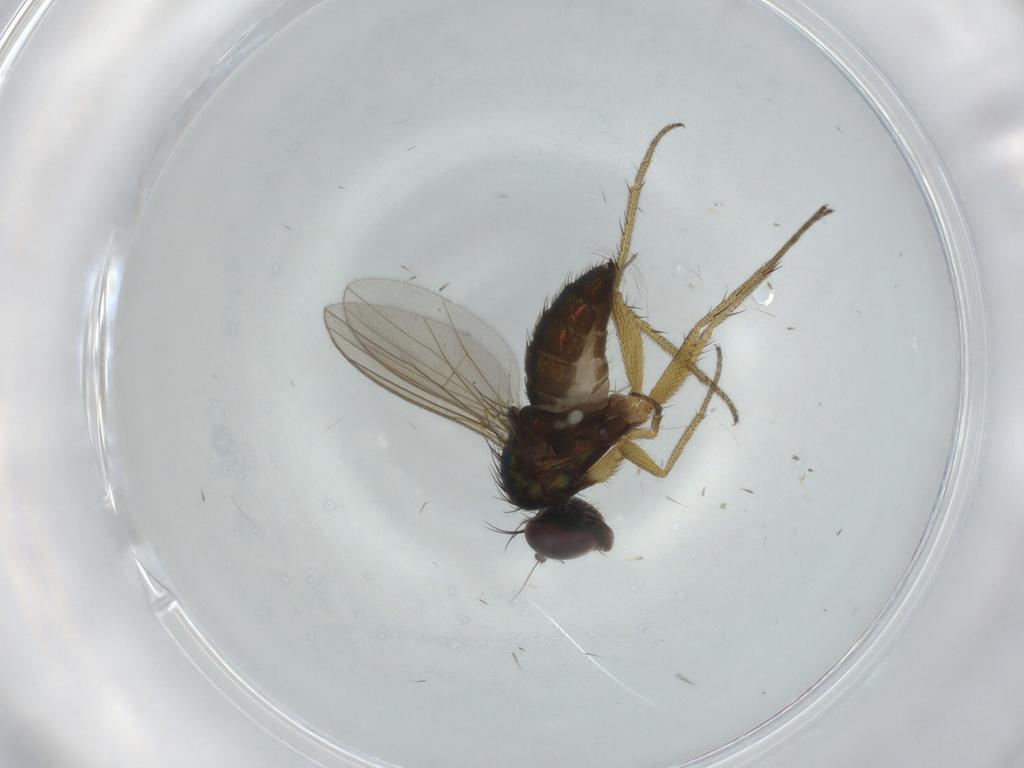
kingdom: Animalia
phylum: Arthropoda
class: Insecta
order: Diptera
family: Dolichopodidae
